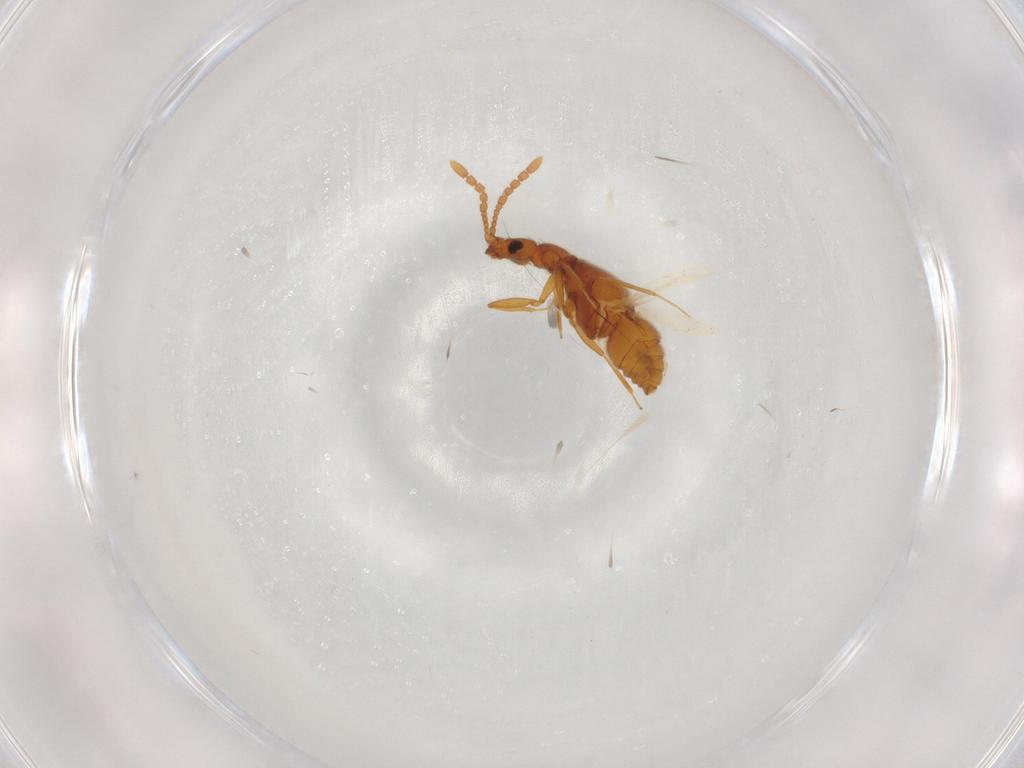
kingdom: Animalia
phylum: Arthropoda
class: Insecta
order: Coleoptera
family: Staphylinidae
